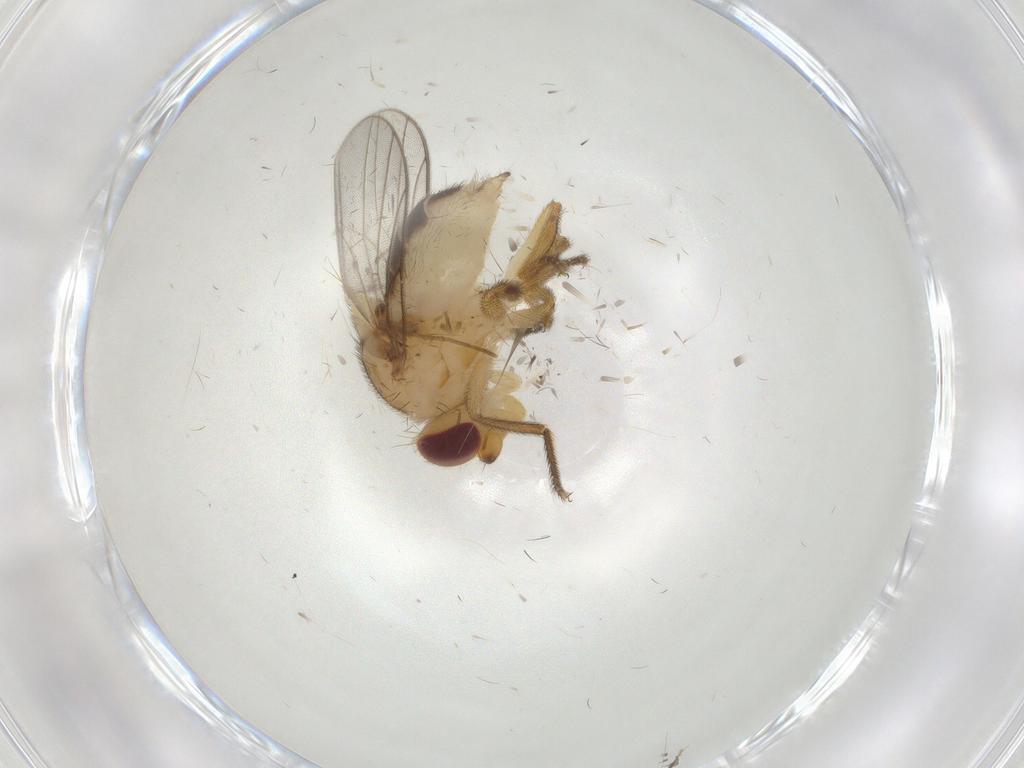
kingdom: Animalia
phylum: Arthropoda
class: Insecta
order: Diptera
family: Chloropidae
